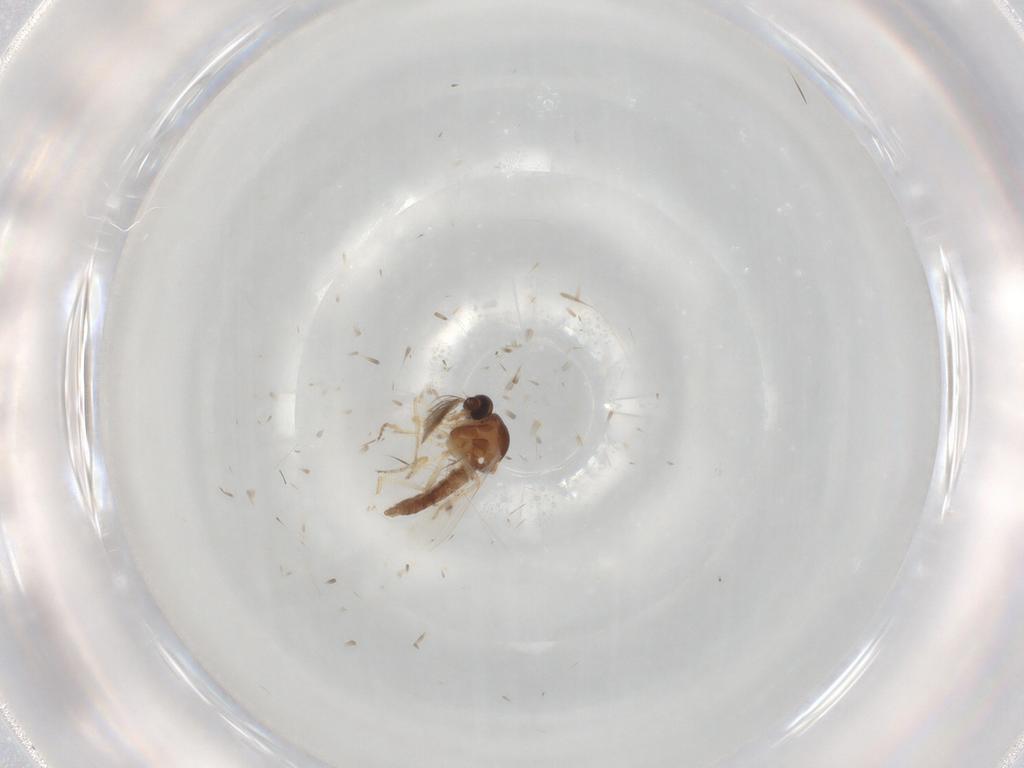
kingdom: Animalia
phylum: Arthropoda
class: Insecta
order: Diptera
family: Ceratopogonidae
